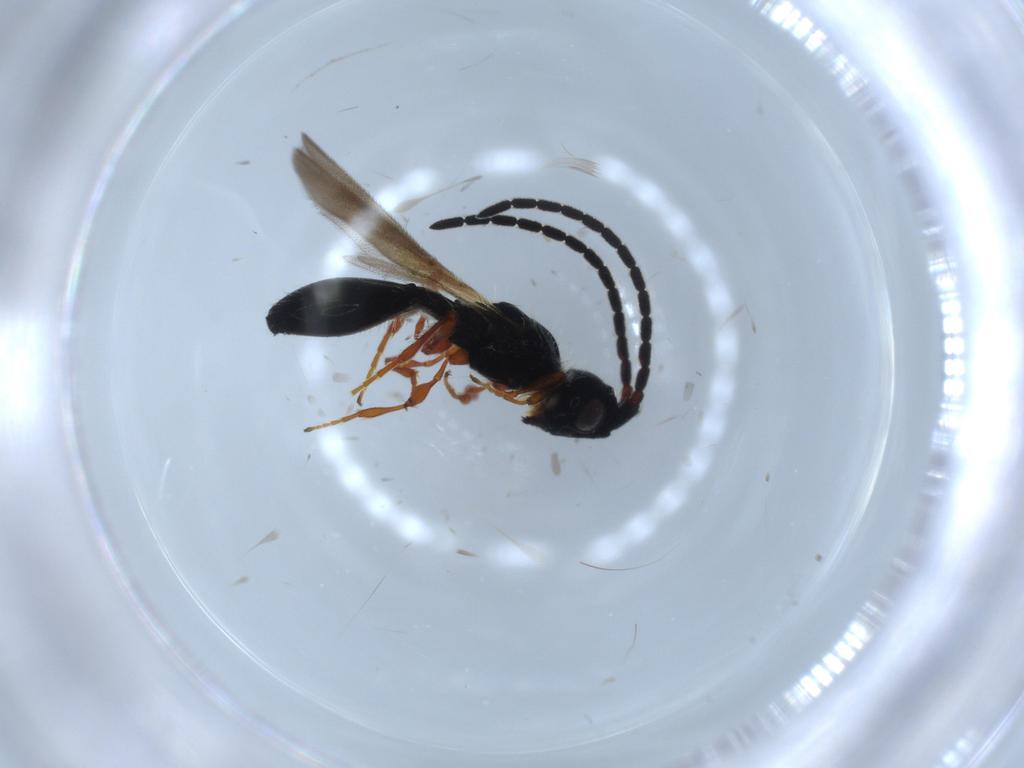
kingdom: Animalia
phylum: Arthropoda
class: Insecta
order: Hymenoptera
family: Diapriidae
